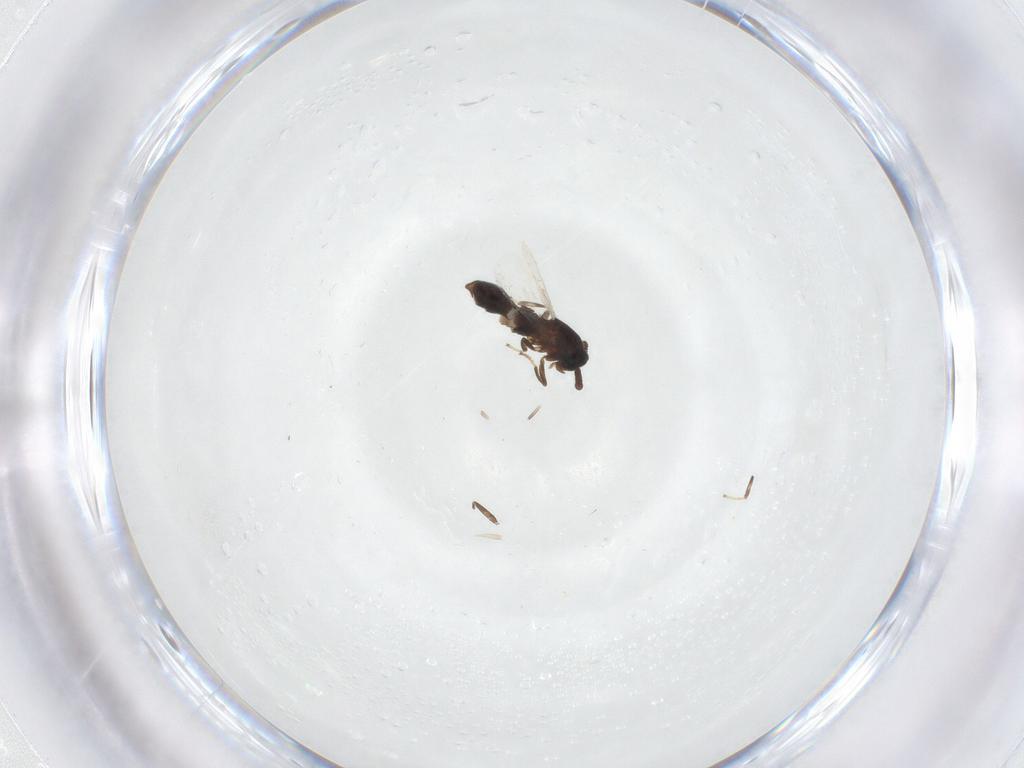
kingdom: Animalia
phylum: Arthropoda
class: Insecta
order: Diptera
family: Scatopsidae
